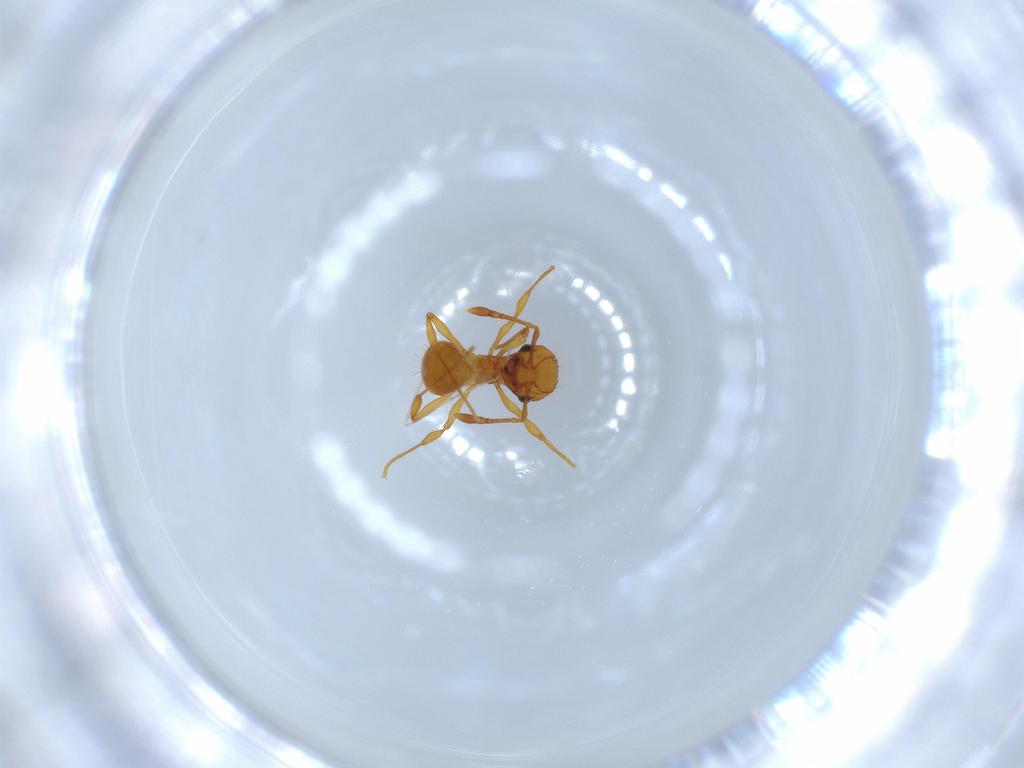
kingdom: Animalia
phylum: Arthropoda
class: Insecta
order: Hymenoptera
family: Formicidae
